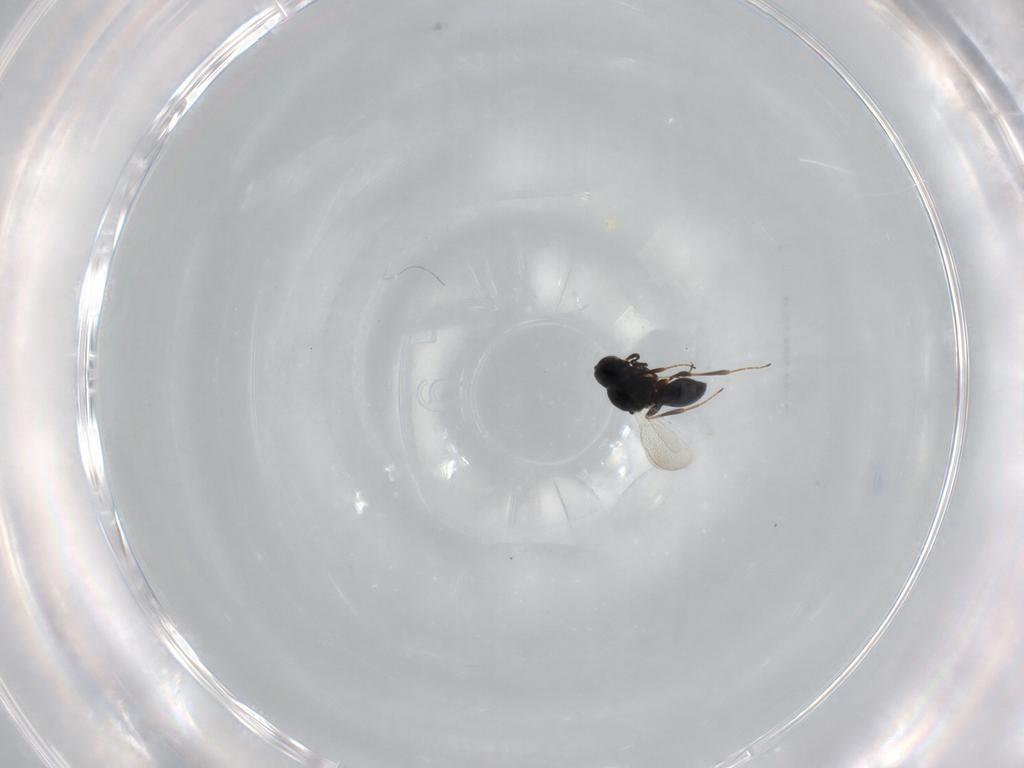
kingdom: Animalia
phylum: Arthropoda
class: Insecta
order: Hymenoptera
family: Platygastridae
